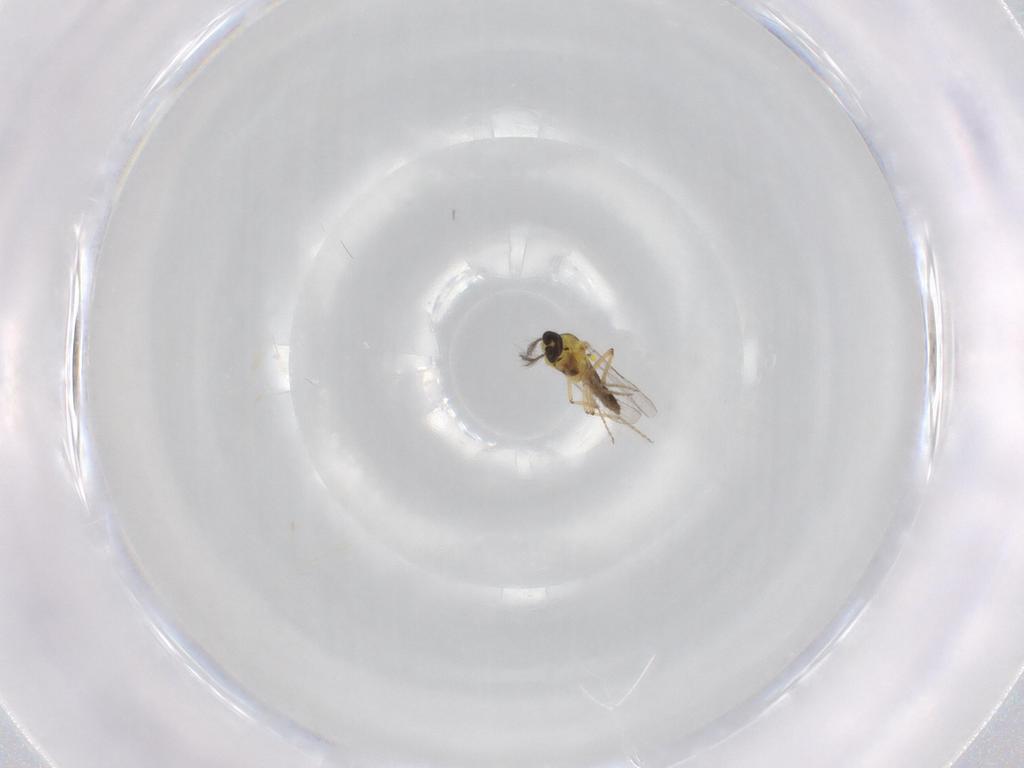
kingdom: Animalia
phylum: Arthropoda
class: Insecta
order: Diptera
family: Ceratopogonidae
